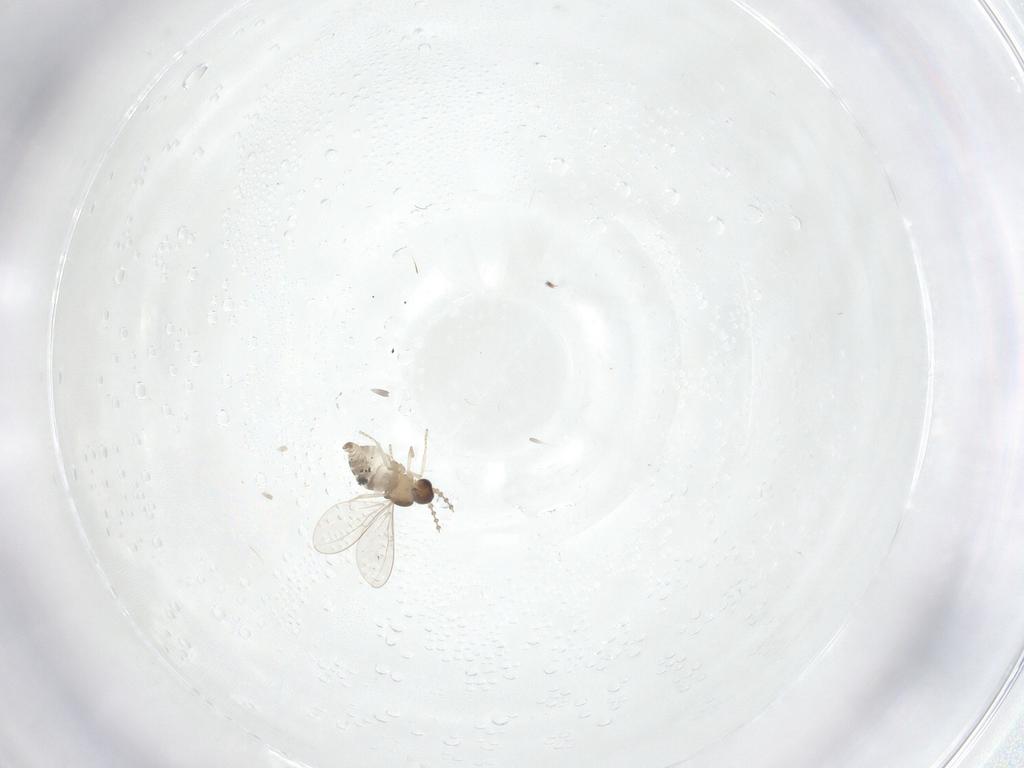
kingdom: Animalia
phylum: Arthropoda
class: Insecta
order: Diptera
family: Cecidomyiidae
